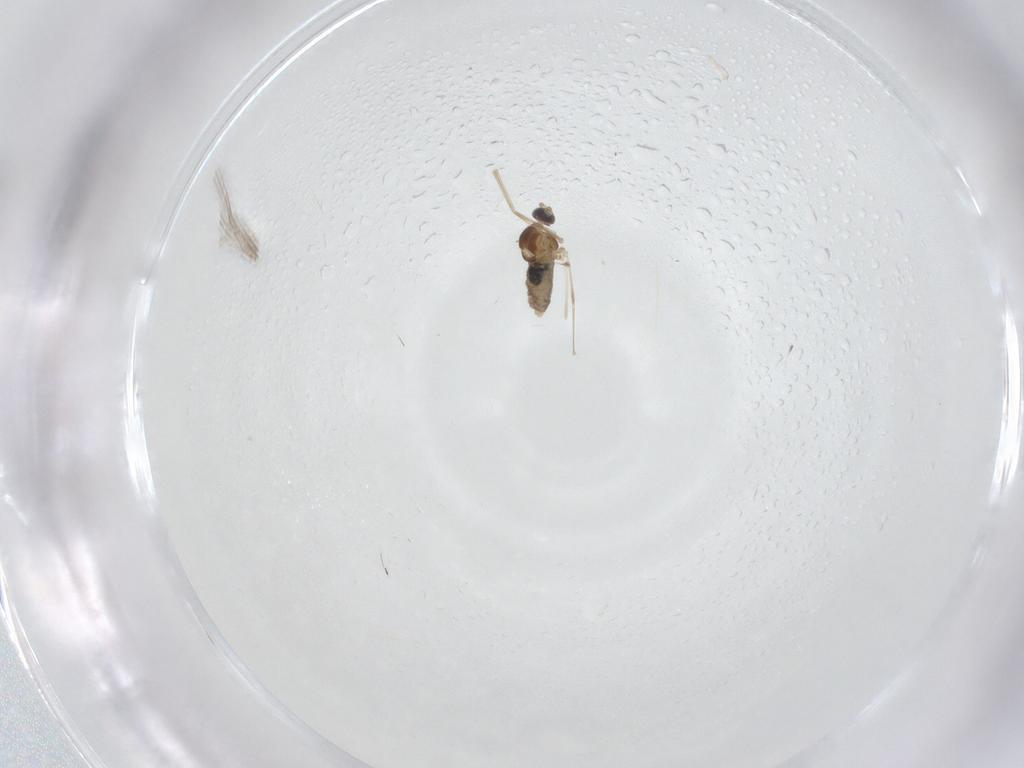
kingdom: Animalia
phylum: Arthropoda
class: Insecta
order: Diptera
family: Cecidomyiidae
